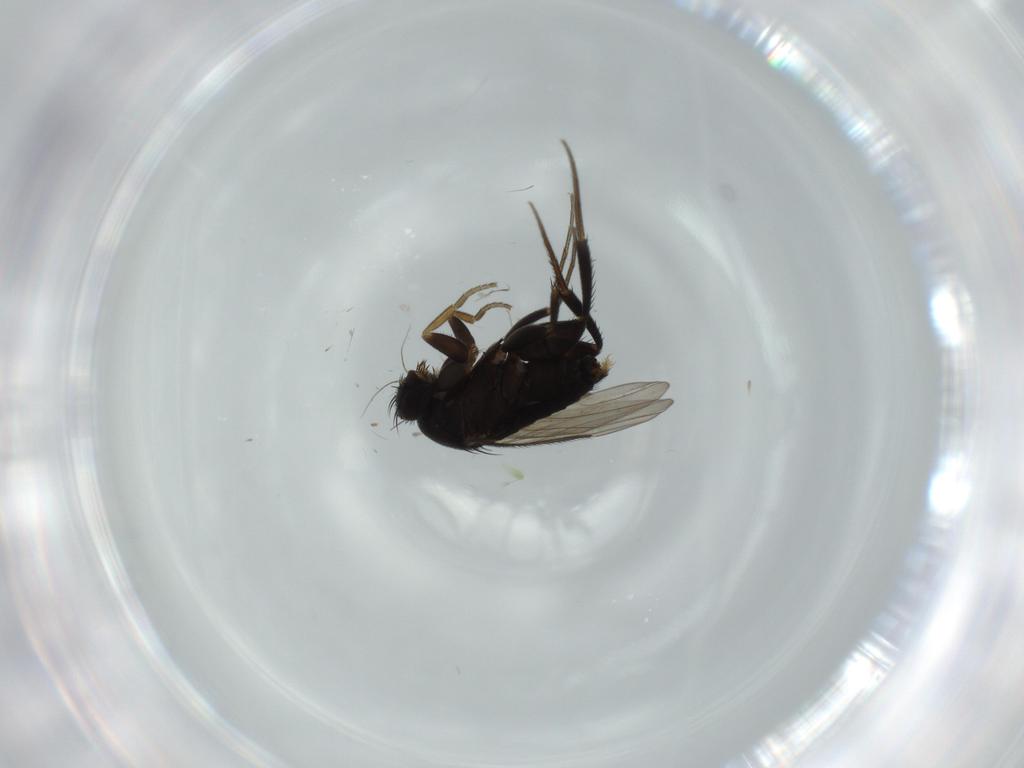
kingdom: Animalia
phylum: Arthropoda
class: Insecta
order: Diptera
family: Phoridae
